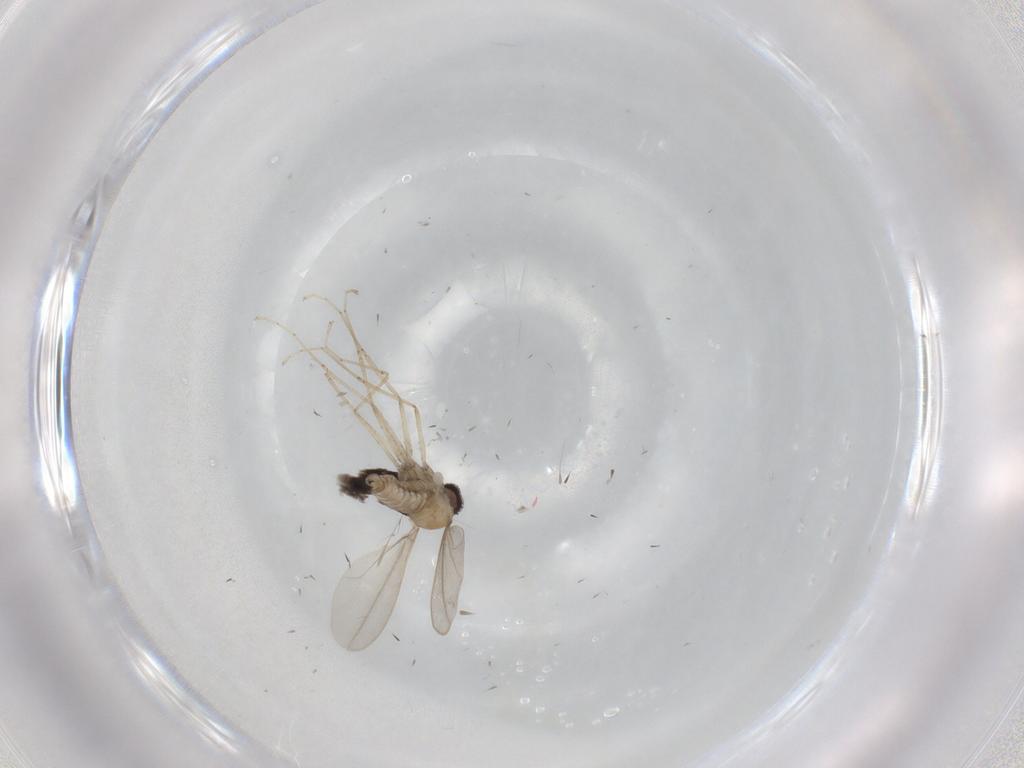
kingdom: Animalia
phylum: Arthropoda
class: Insecta
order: Diptera
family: Cecidomyiidae
